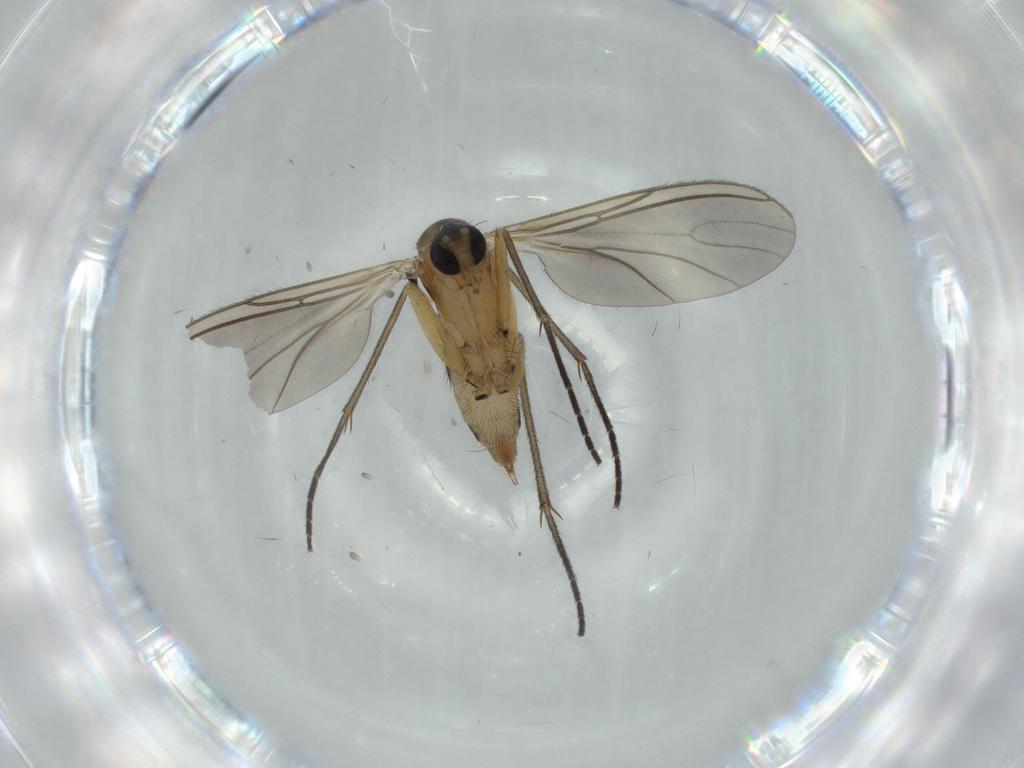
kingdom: Animalia
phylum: Arthropoda
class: Insecta
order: Diptera
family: Sciaridae
